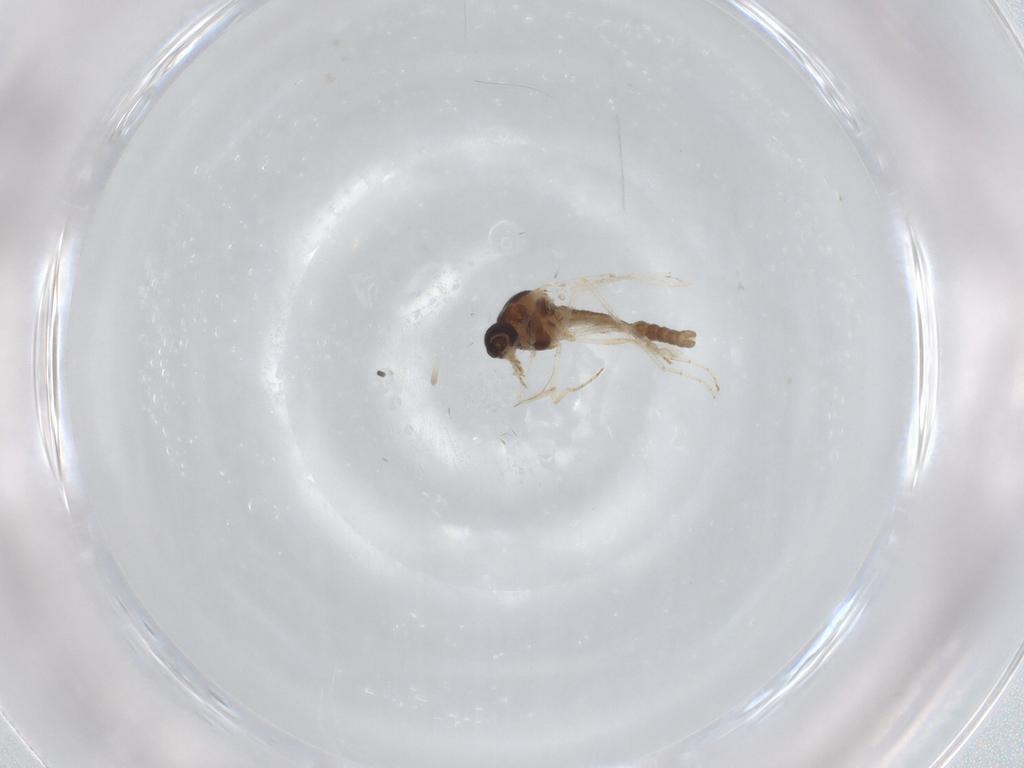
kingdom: Animalia
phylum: Arthropoda
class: Insecta
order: Diptera
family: Ceratopogonidae
